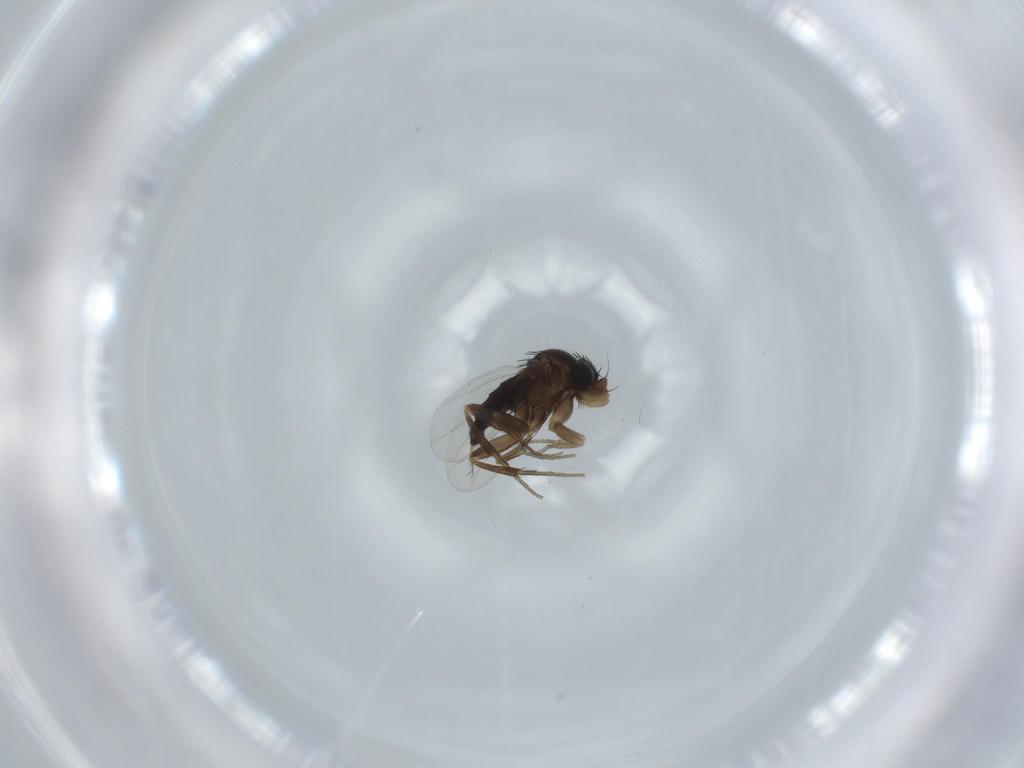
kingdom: Animalia
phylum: Arthropoda
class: Insecta
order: Diptera
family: Phoridae
